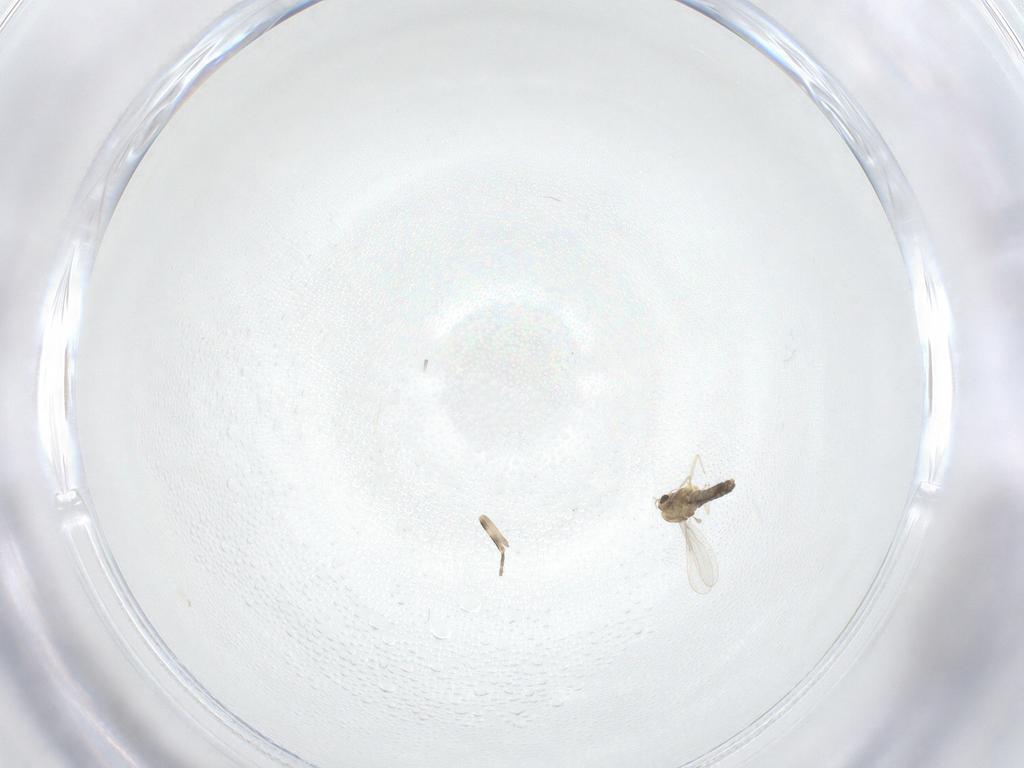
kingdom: Animalia
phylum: Arthropoda
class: Insecta
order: Diptera
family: Chironomidae
